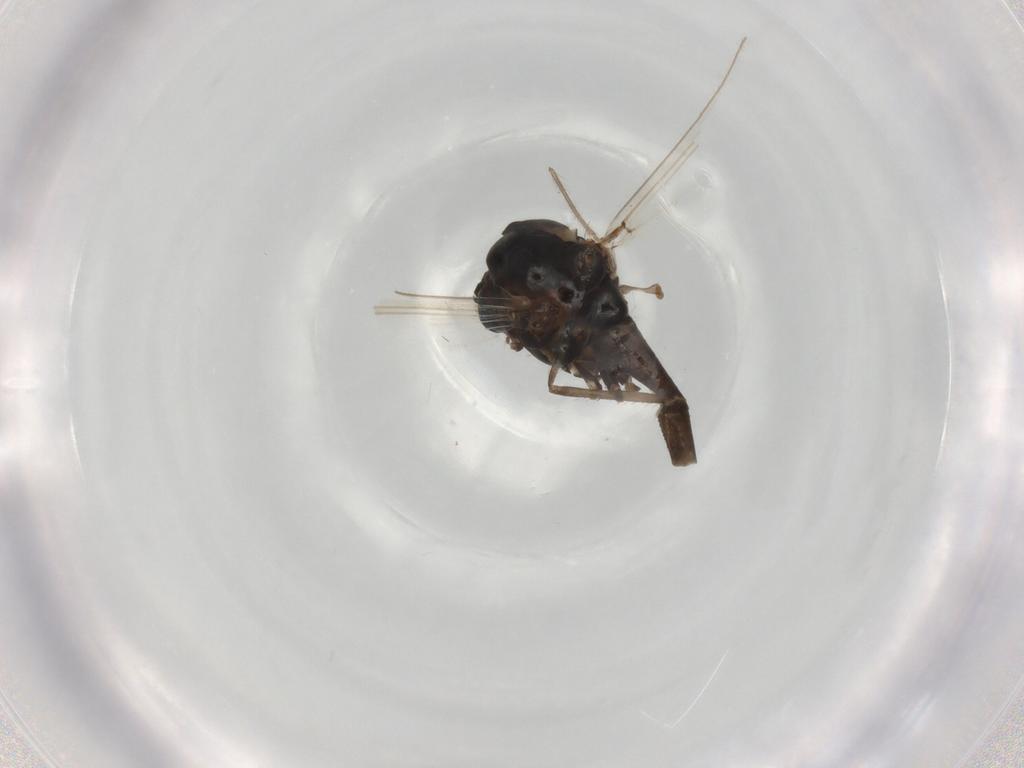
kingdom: Animalia
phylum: Arthropoda
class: Insecta
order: Diptera
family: Chironomidae
